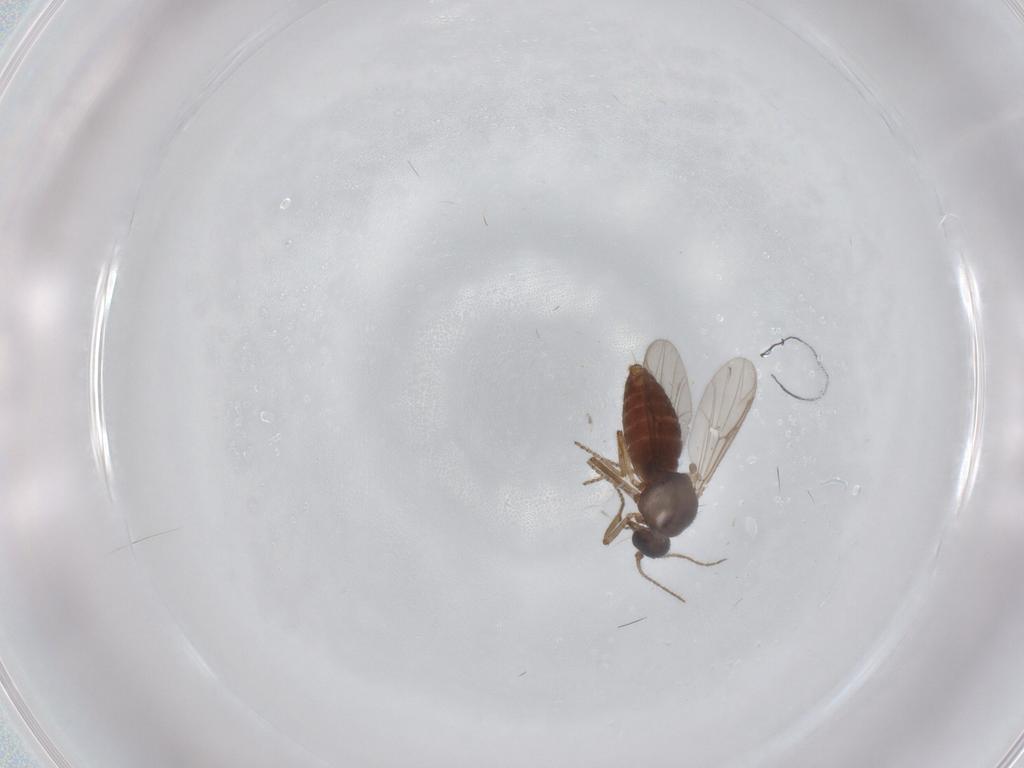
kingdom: Animalia
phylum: Arthropoda
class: Insecta
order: Diptera
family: Ceratopogonidae
